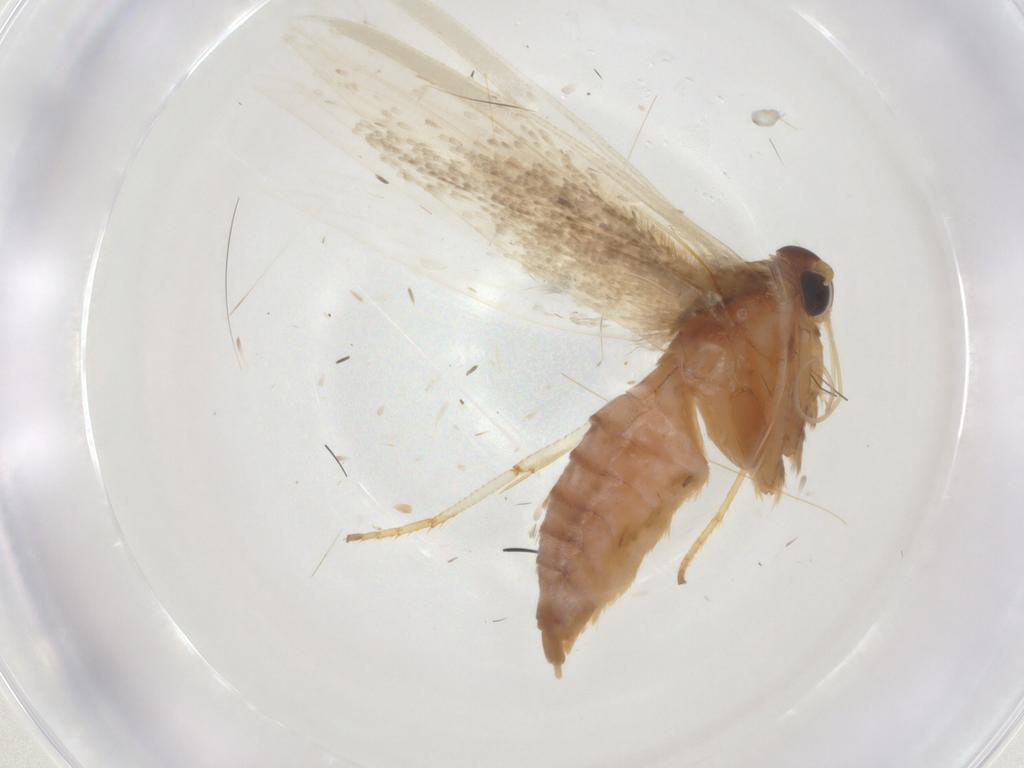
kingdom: Animalia
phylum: Arthropoda
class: Insecta
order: Lepidoptera
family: Blastobasidae
